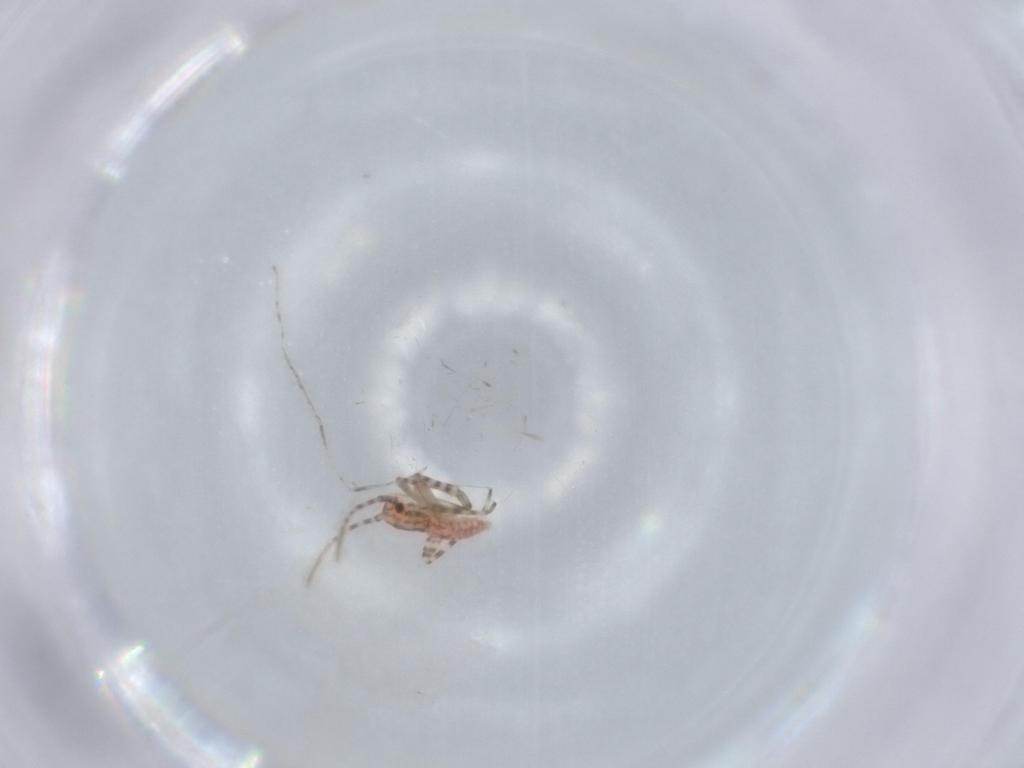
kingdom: Animalia
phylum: Arthropoda
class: Insecta
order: Hemiptera
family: Miridae
